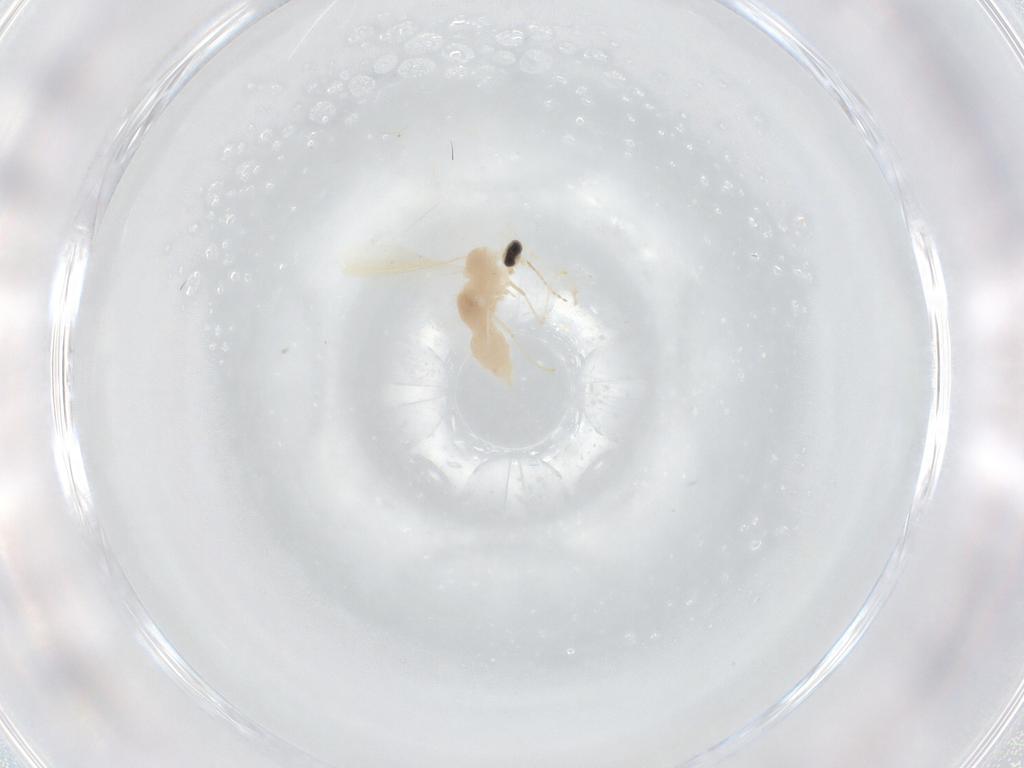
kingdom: Animalia
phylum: Arthropoda
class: Insecta
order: Diptera
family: Cecidomyiidae
